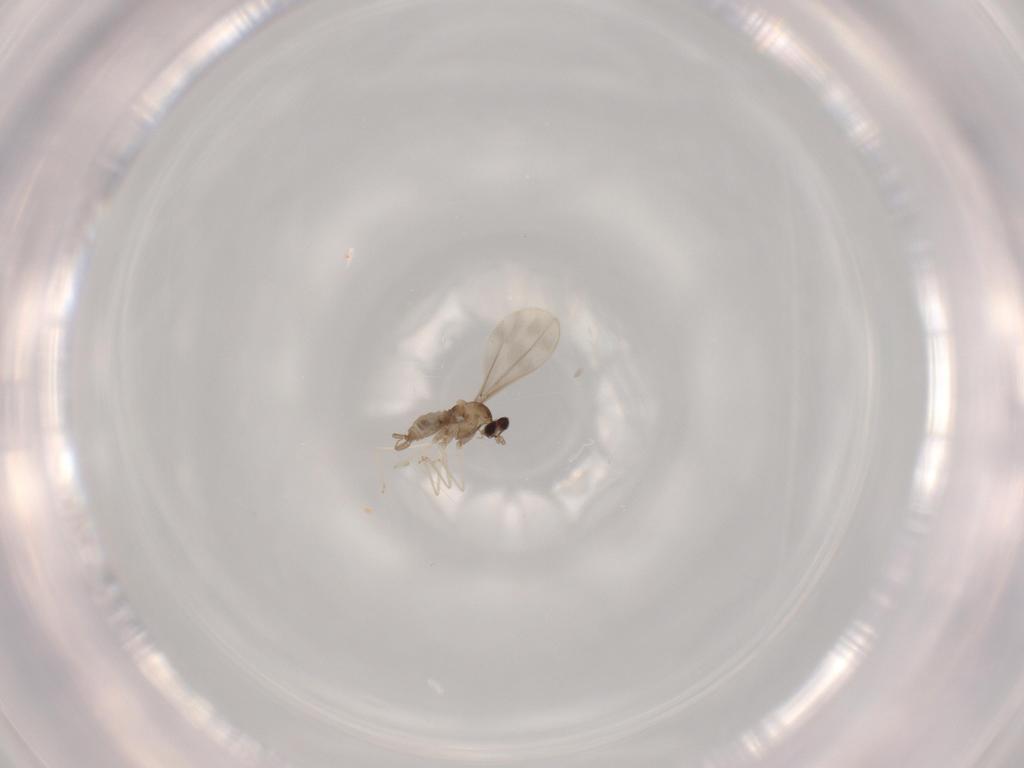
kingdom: Animalia
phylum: Arthropoda
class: Insecta
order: Diptera
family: Cecidomyiidae
